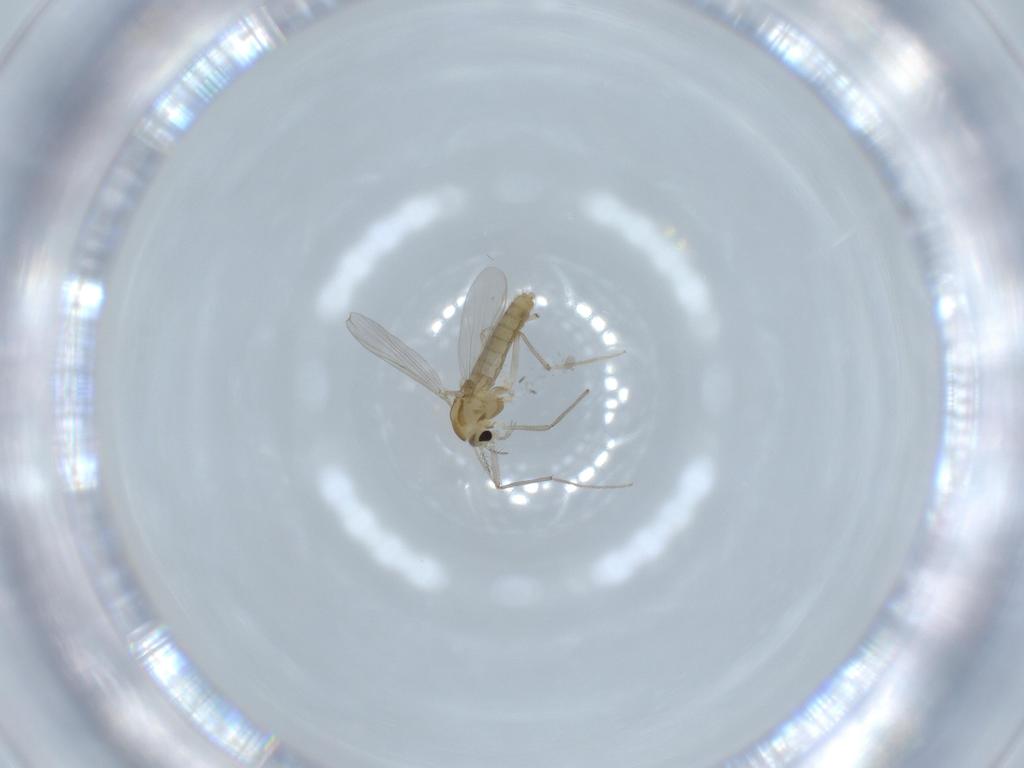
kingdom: Animalia
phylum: Arthropoda
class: Insecta
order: Diptera
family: Chironomidae
